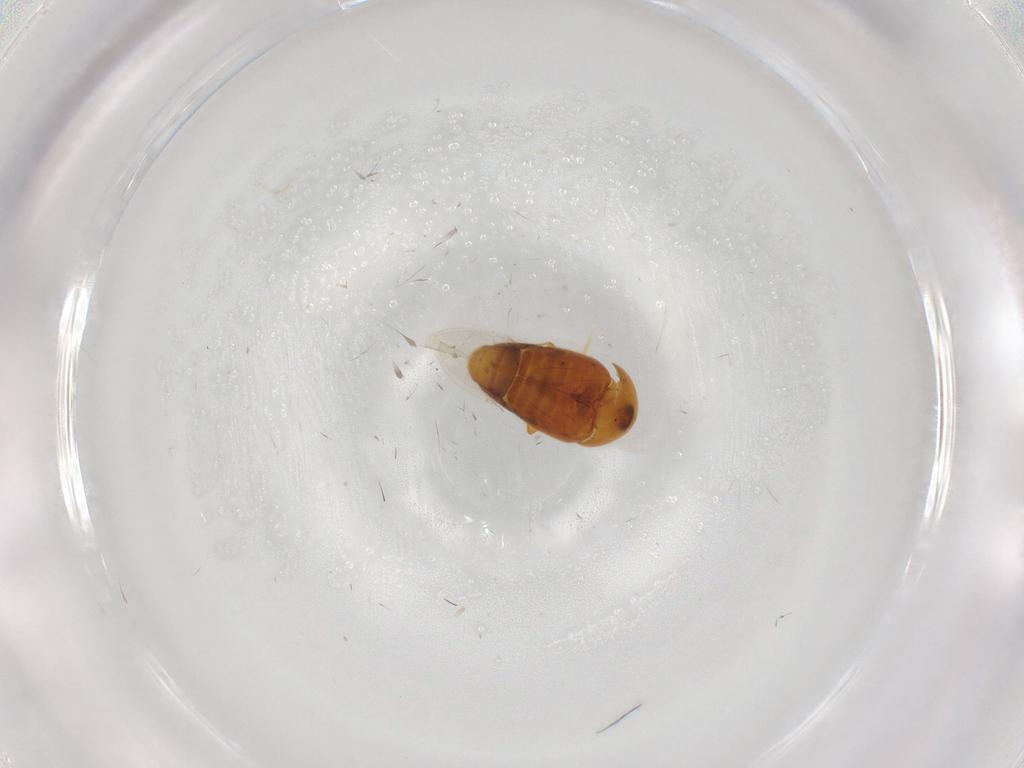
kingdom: Animalia
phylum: Arthropoda
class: Insecta
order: Coleoptera
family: Corylophidae
